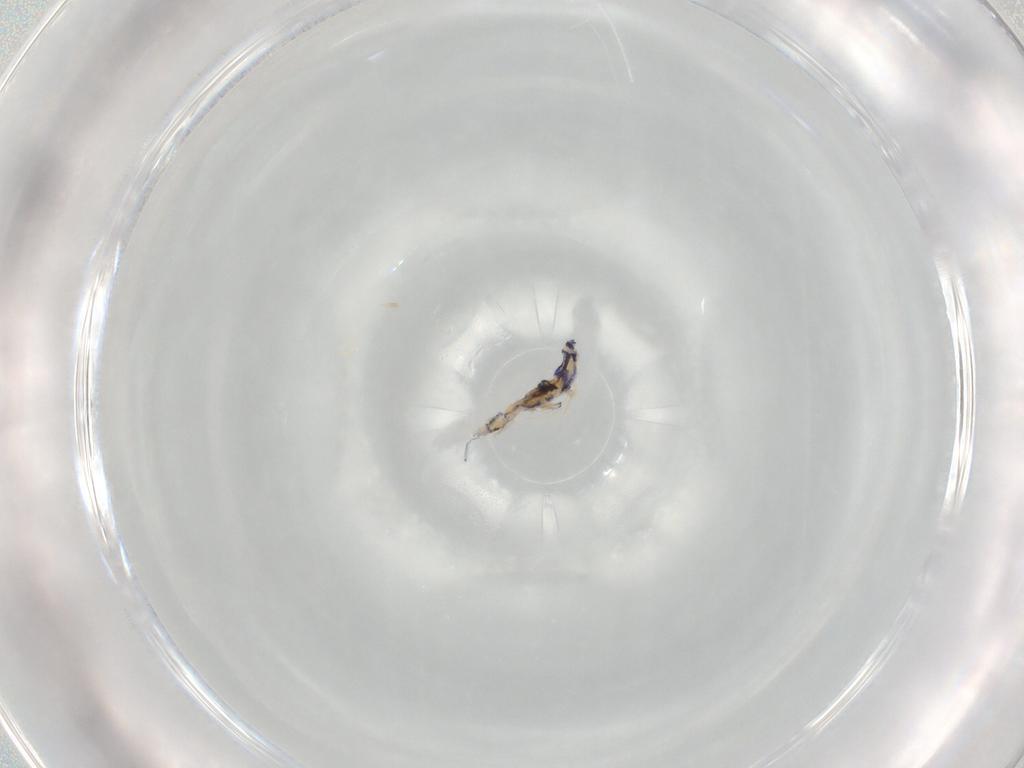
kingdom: Animalia
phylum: Arthropoda
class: Collembola
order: Entomobryomorpha
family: Entomobryidae
